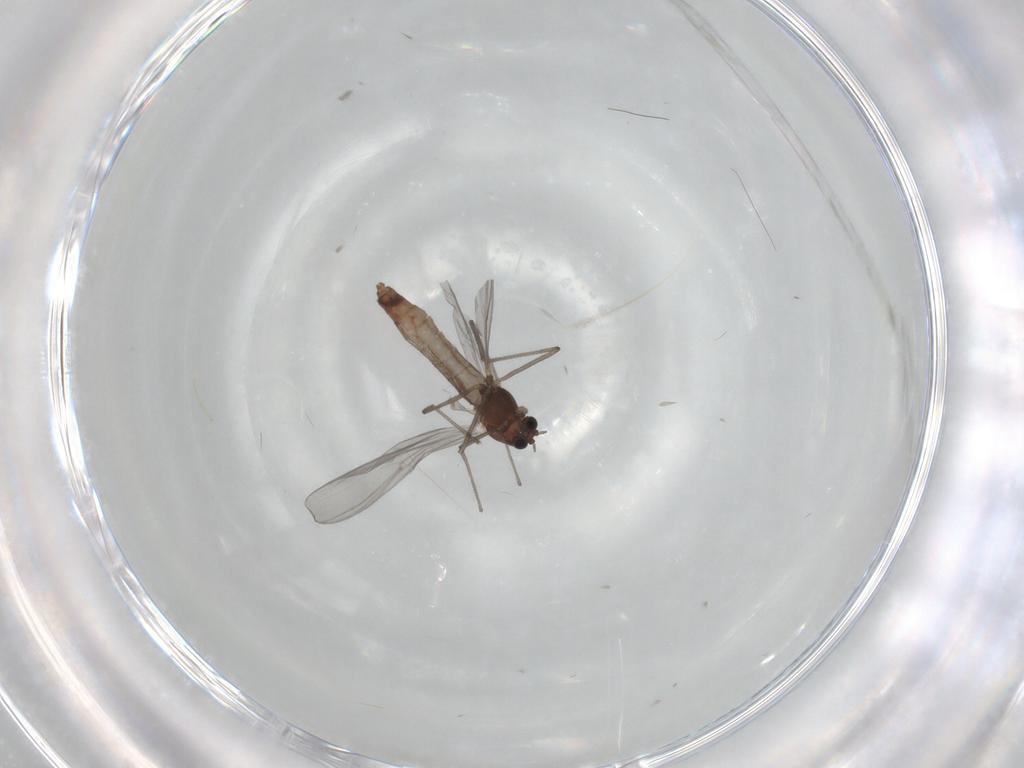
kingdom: Animalia
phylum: Arthropoda
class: Insecta
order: Diptera
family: Chironomidae
